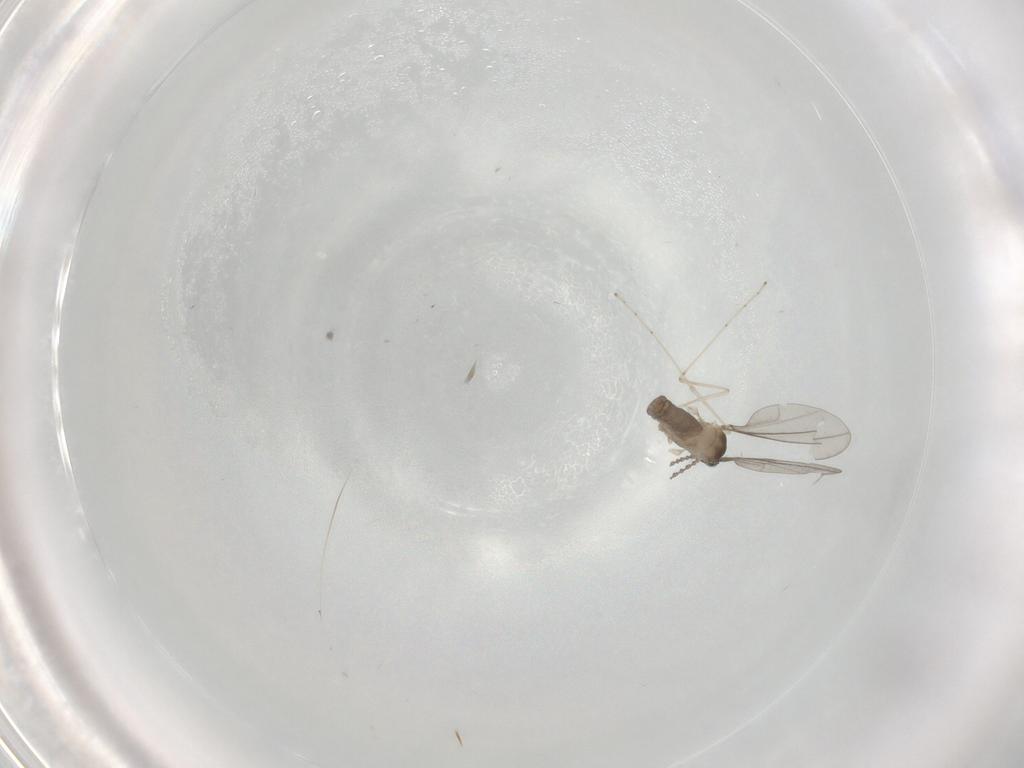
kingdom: Animalia
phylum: Arthropoda
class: Insecta
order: Diptera
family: Cecidomyiidae
